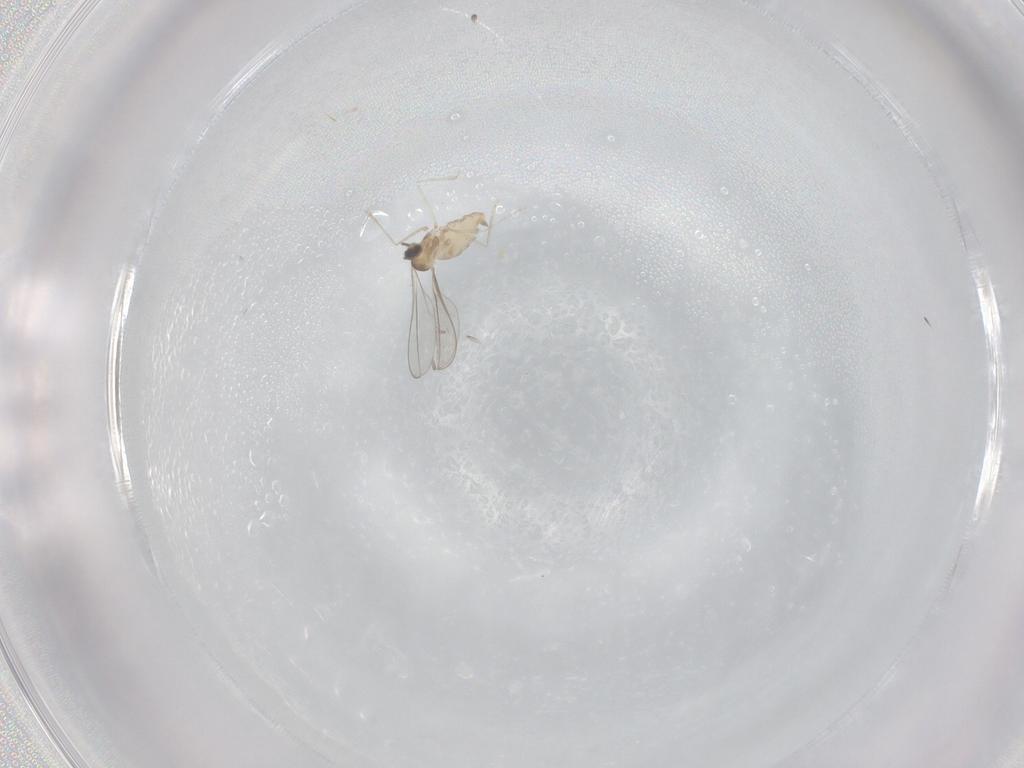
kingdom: Animalia
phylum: Arthropoda
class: Insecta
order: Diptera
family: Cecidomyiidae
